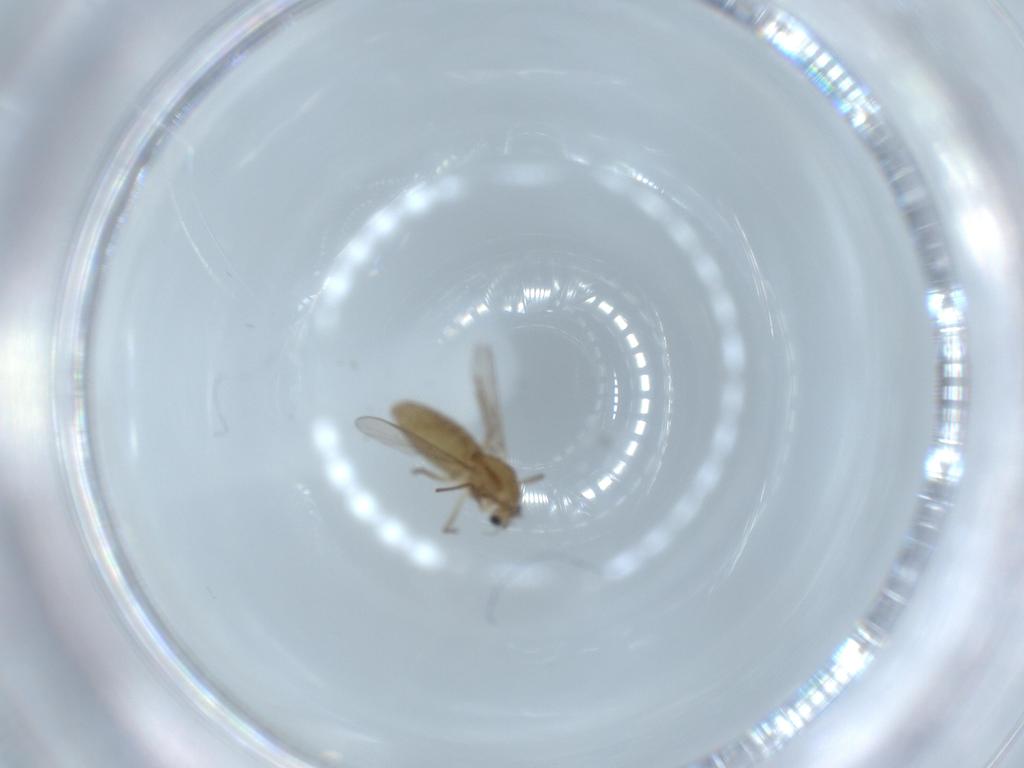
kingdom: Animalia
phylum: Arthropoda
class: Insecta
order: Diptera
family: Chironomidae
